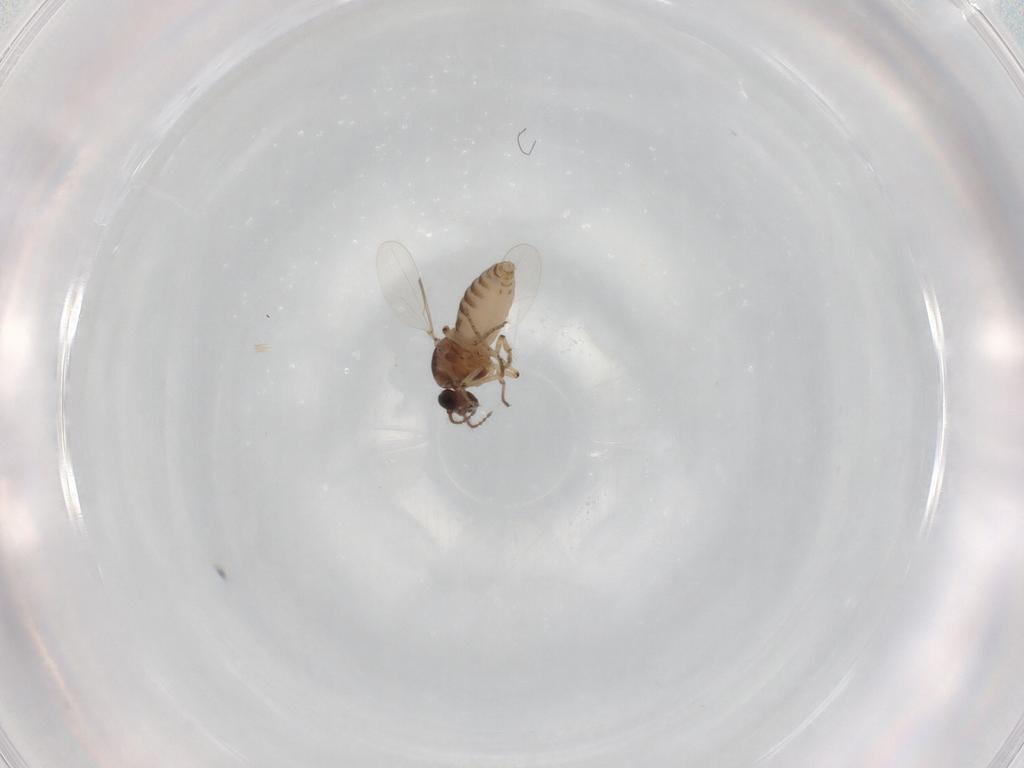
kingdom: Animalia
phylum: Arthropoda
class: Insecta
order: Diptera
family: Ceratopogonidae
